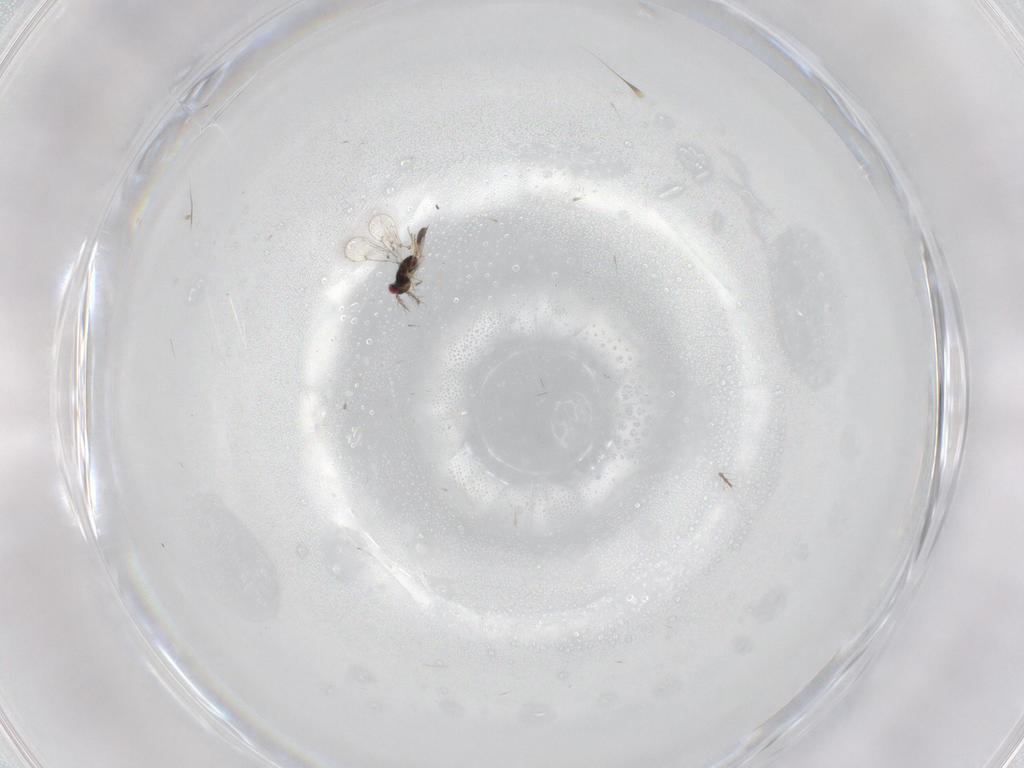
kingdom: Animalia
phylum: Arthropoda
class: Insecta
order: Hymenoptera
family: Eulophidae
